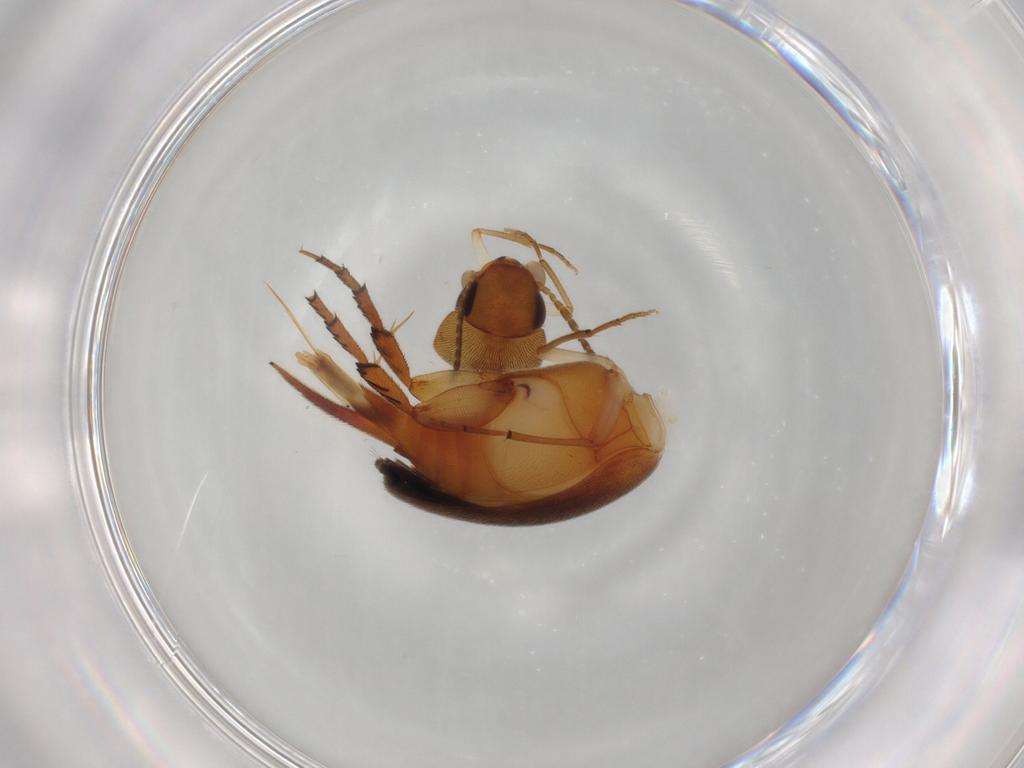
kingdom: Animalia
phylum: Arthropoda
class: Insecta
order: Coleoptera
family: Mordellidae
